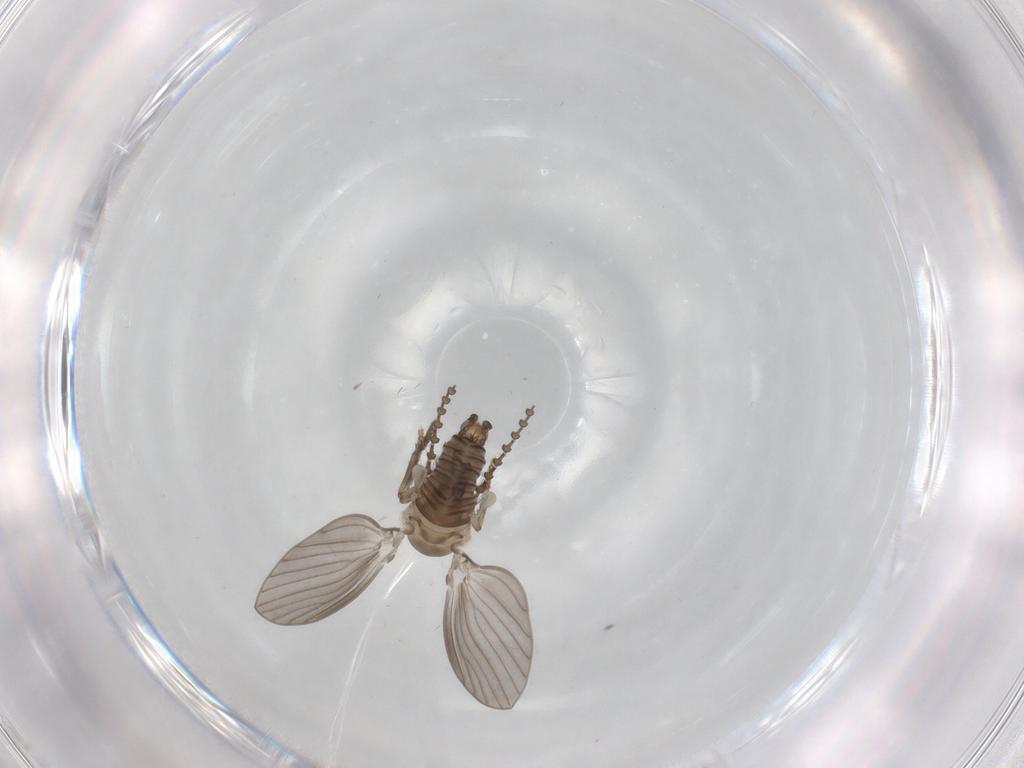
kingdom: Animalia
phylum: Arthropoda
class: Insecta
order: Diptera
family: Psychodidae
